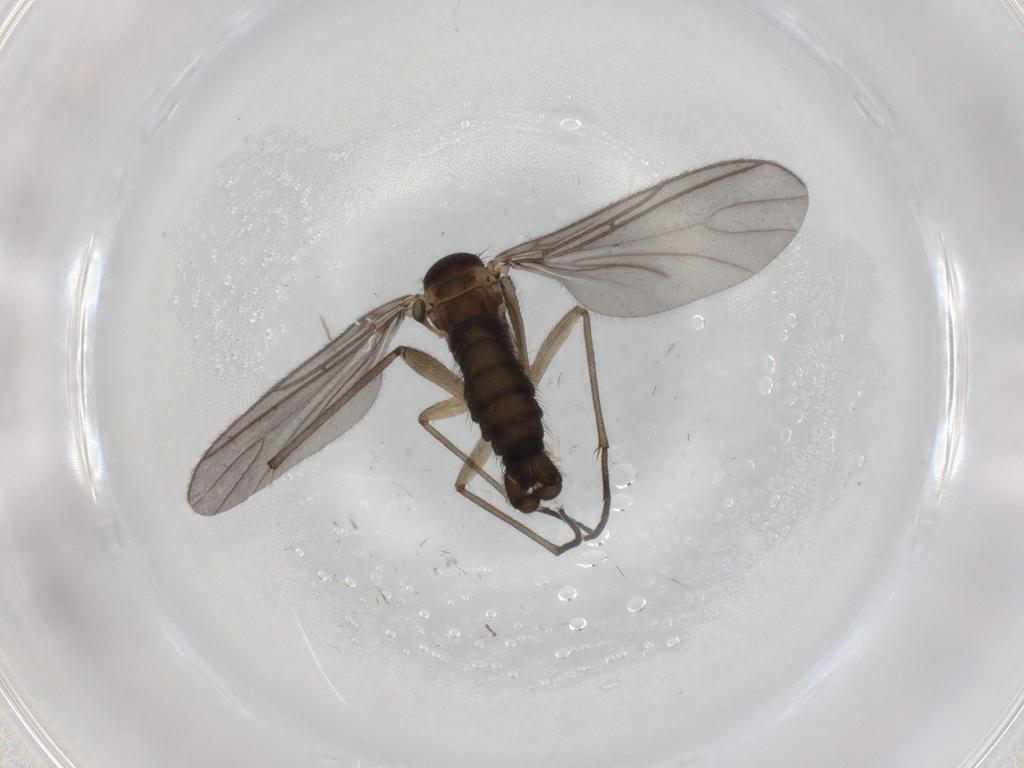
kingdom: Animalia
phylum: Arthropoda
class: Insecta
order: Diptera
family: Sciaridae
